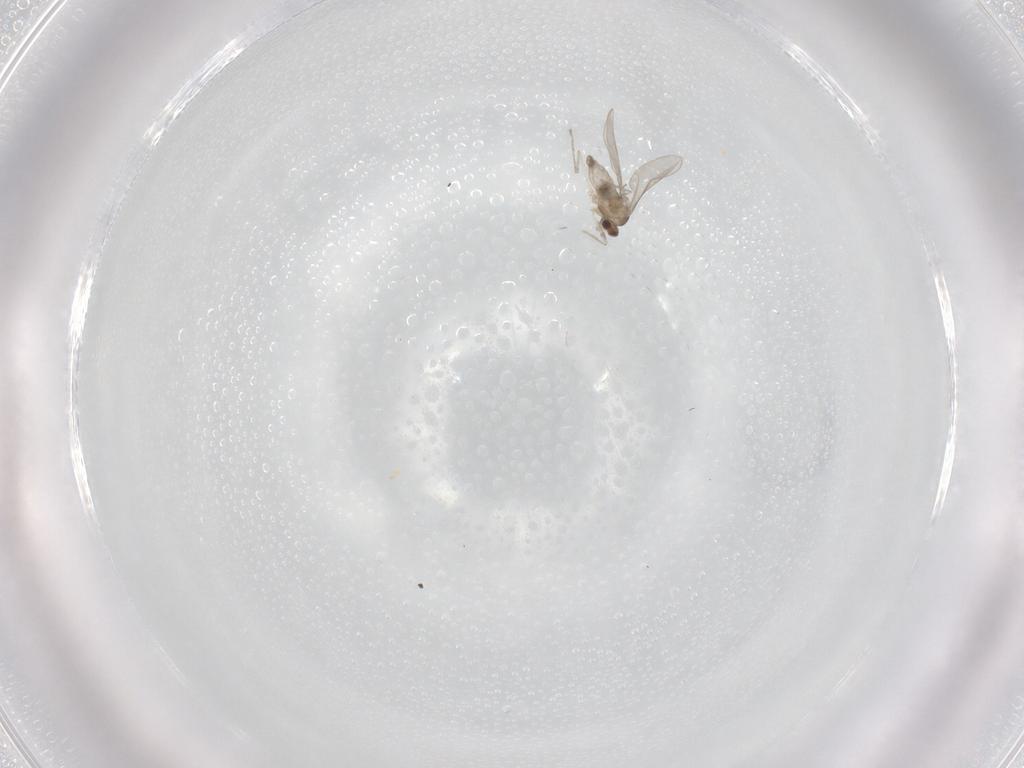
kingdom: Animalia
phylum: Arthropoda
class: Insecta
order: Diptera
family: Cecidomyiidae
